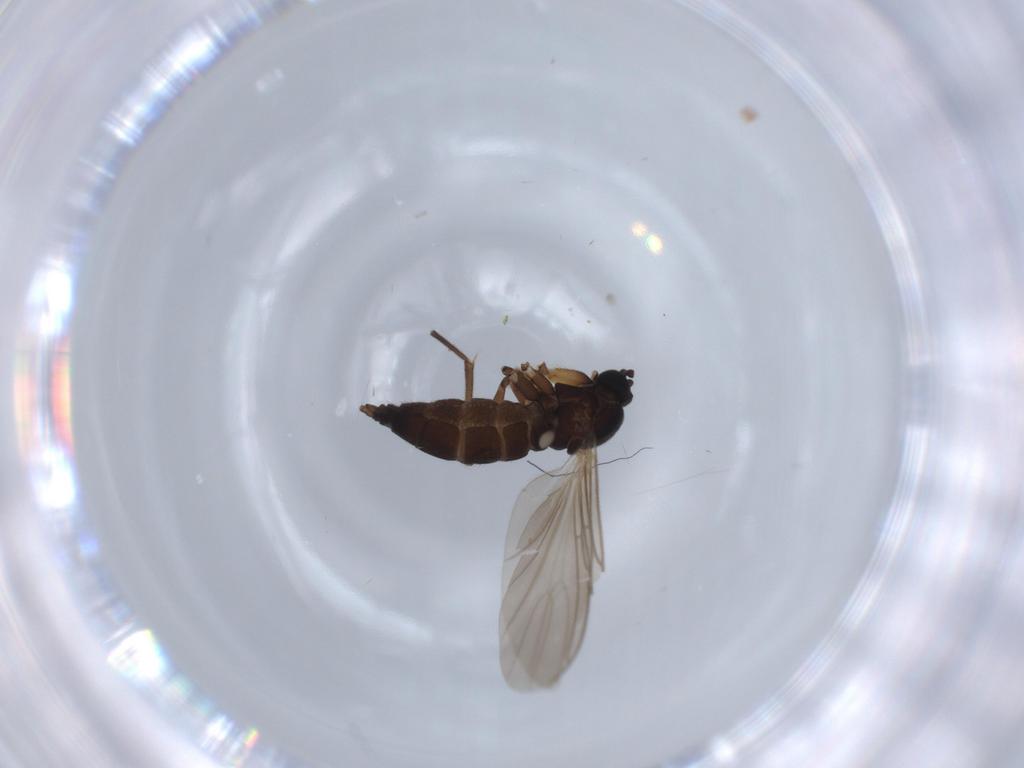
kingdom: Animalia
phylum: Arthropoda
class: Insecta
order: Diptera
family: Sciaridae
